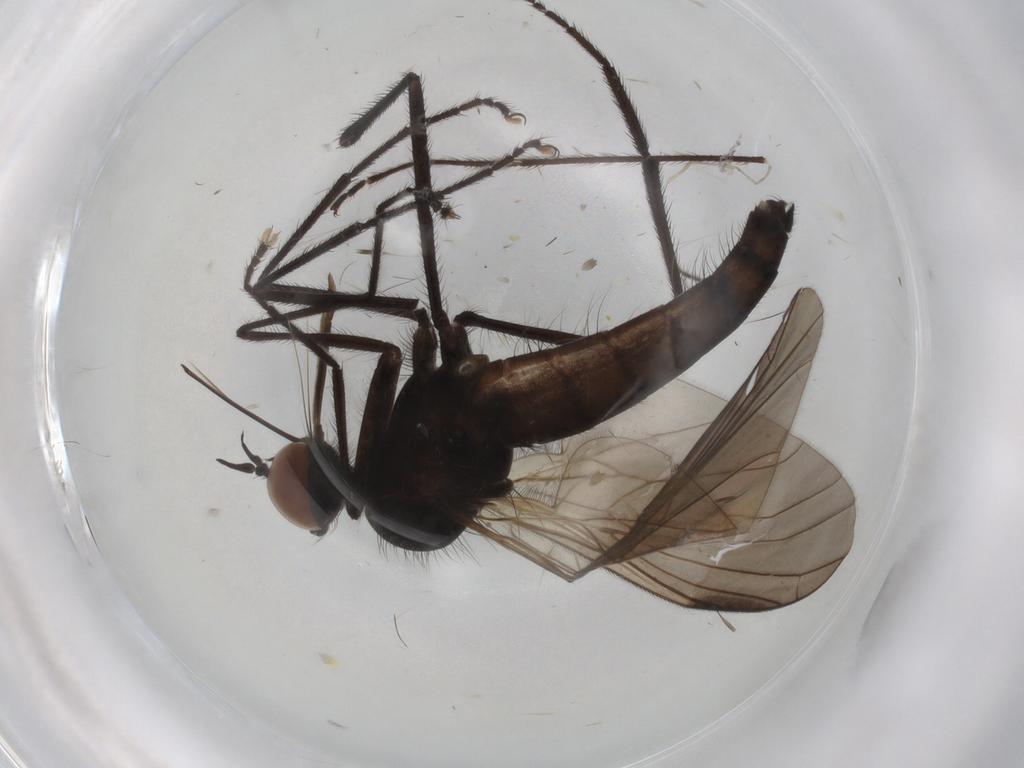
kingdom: Animalia
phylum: Arthropoda
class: Insecta
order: Diptera
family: Empididae
